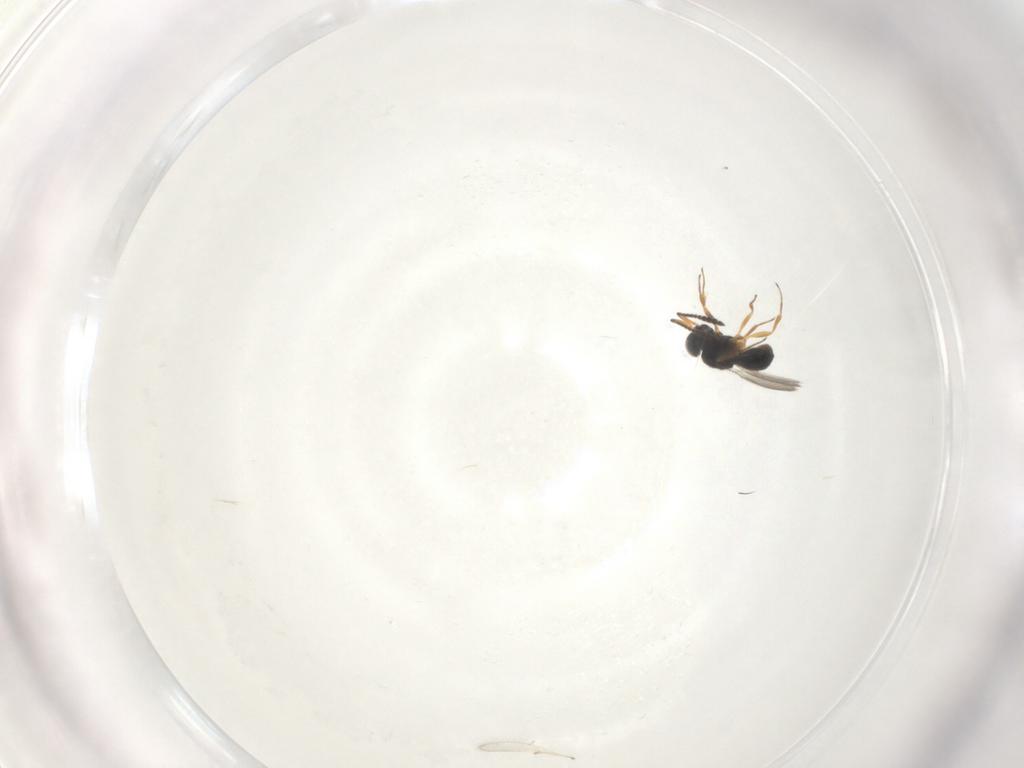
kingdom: Animalia
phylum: Arthropoda
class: Insecta
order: Hymenoptera
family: Scelionidae
